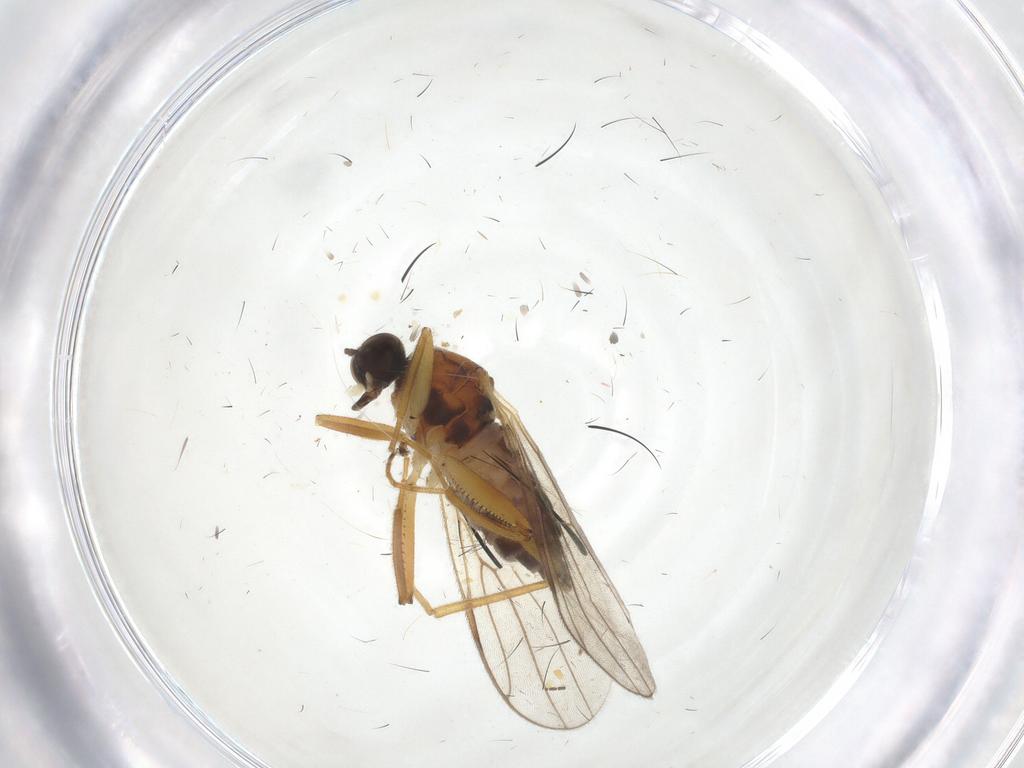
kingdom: Animalia
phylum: Arthropoda
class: Insecta
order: Diptera
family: Hybotidae
